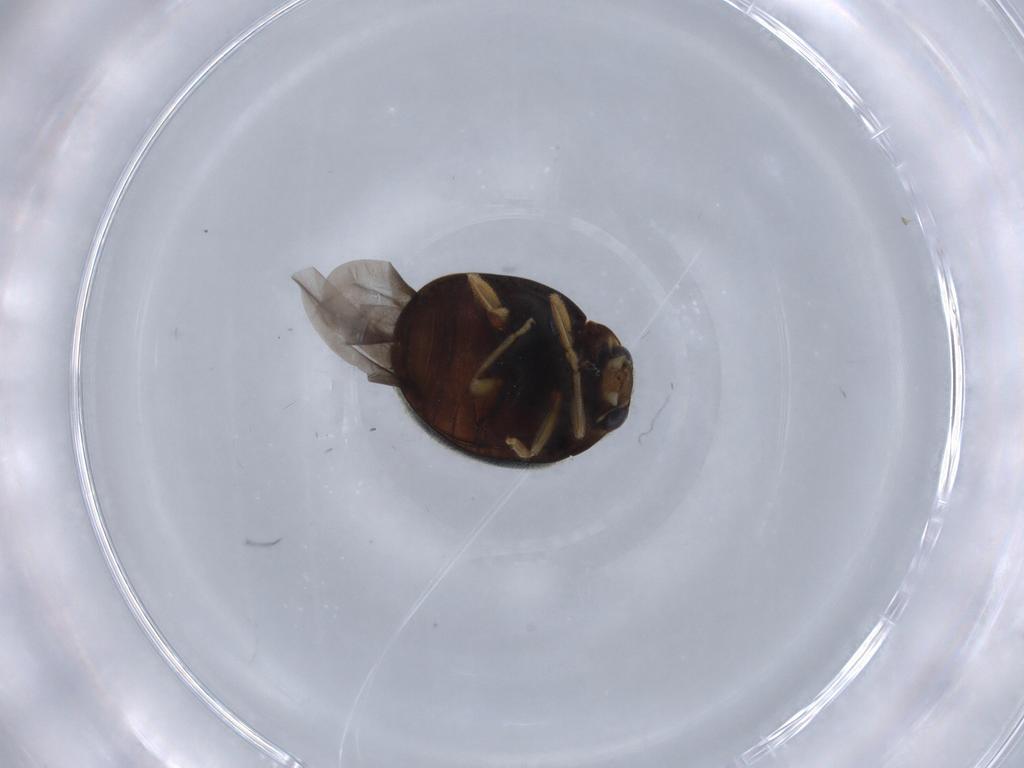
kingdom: Animalia
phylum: Arthropoda
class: Insecta
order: Coleoptera
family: Coccinellidae
